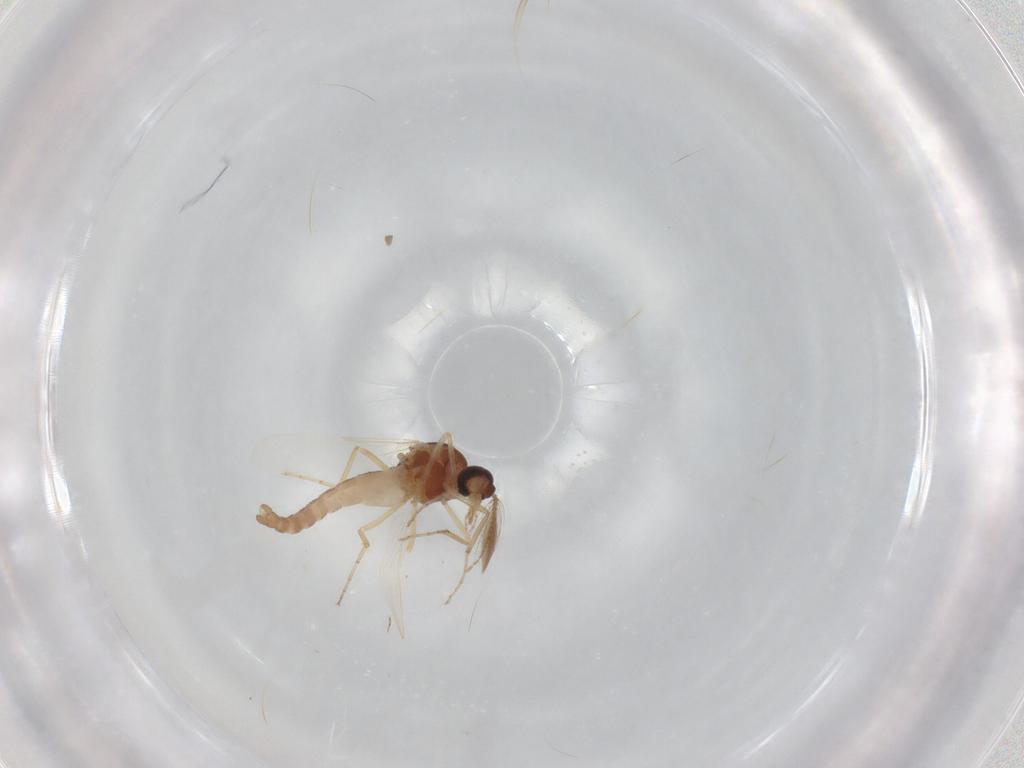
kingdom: Animalia
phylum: Arthropoda
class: Insecta
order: Diptera
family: Scatopsidae
